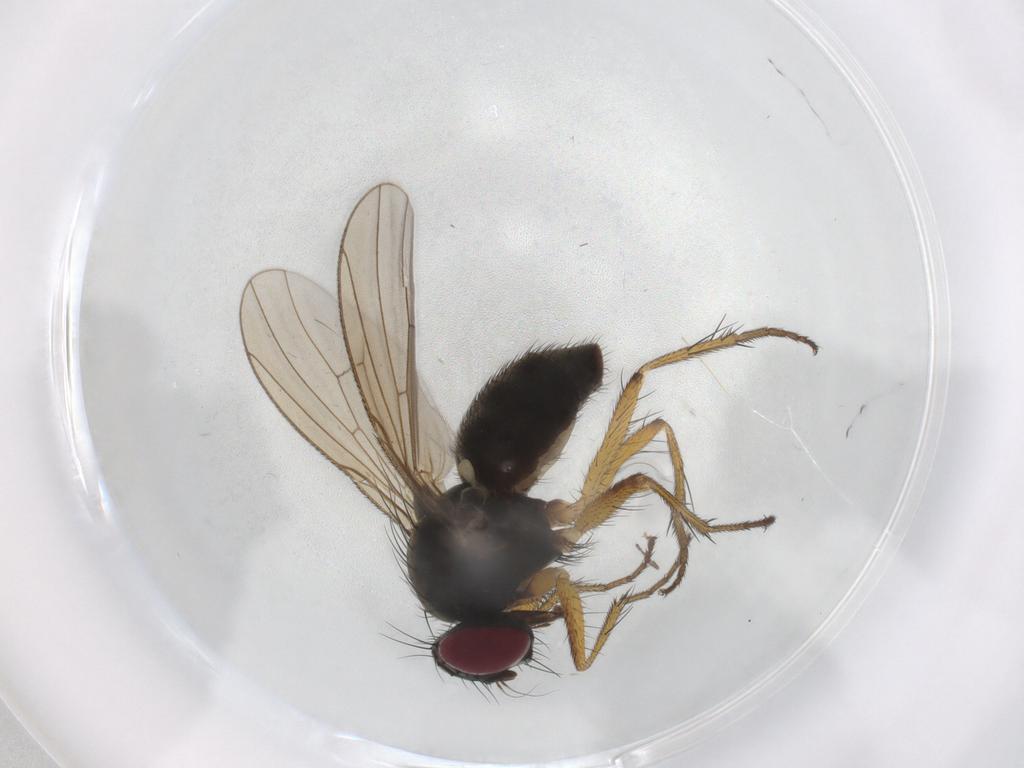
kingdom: Animalia
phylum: Arthropoda
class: Insecta
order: Diptera
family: Muscidae
